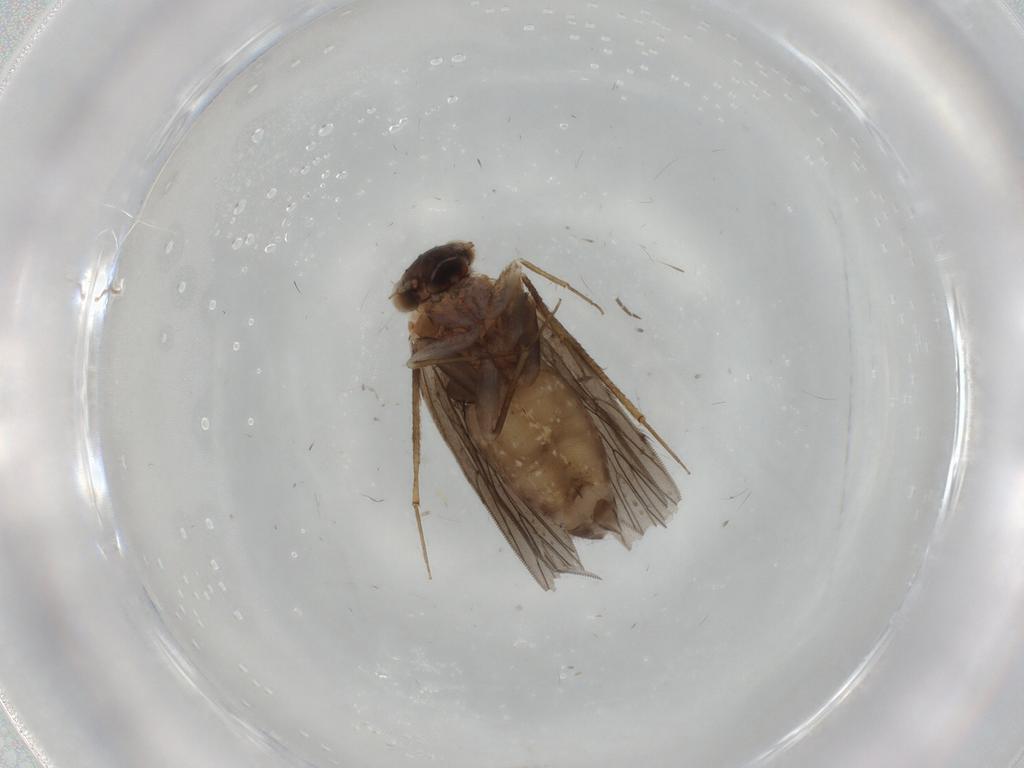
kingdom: Animalia
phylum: Arthropoda
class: Insecta
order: Psocodea
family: Lepidopsocidae
